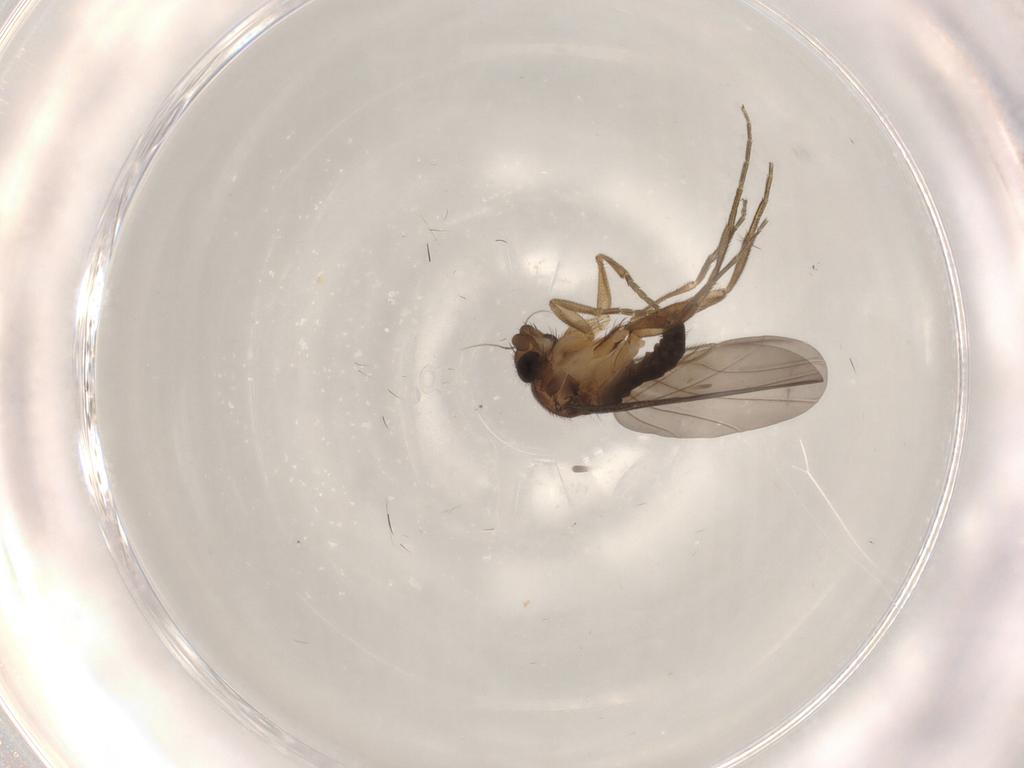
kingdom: Animalia
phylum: Arthropoda
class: Insecta
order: Diptera
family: Phoridae
